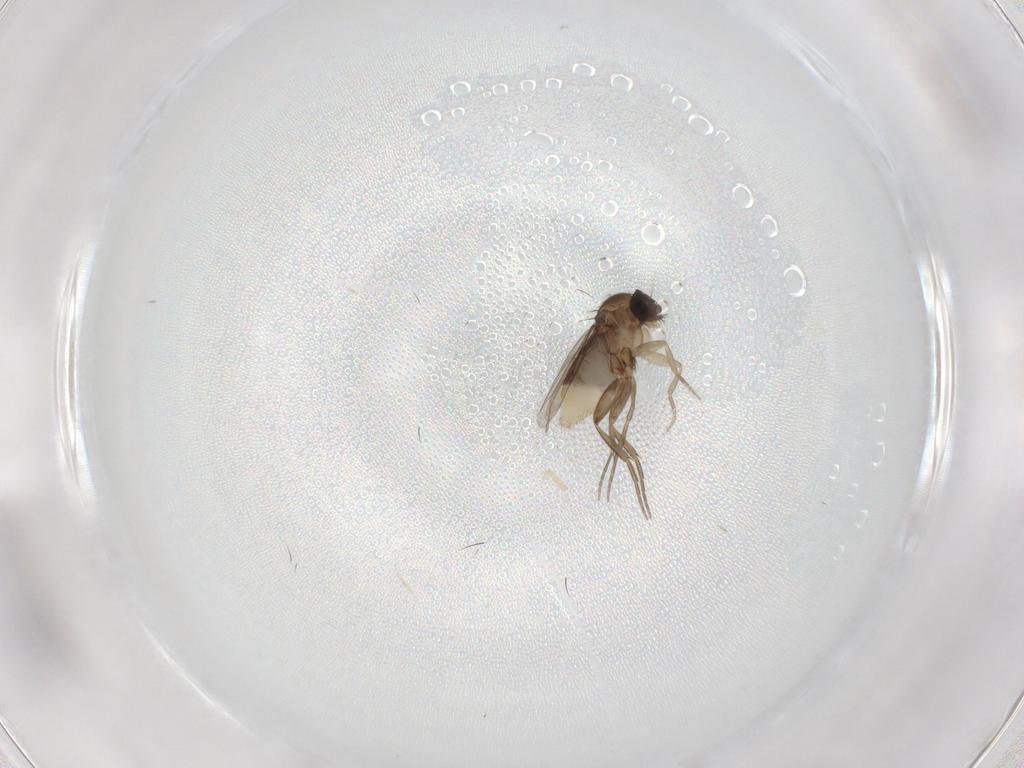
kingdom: Animalia
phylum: Arthropoda
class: Insecta
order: Diptera
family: Phoridae
